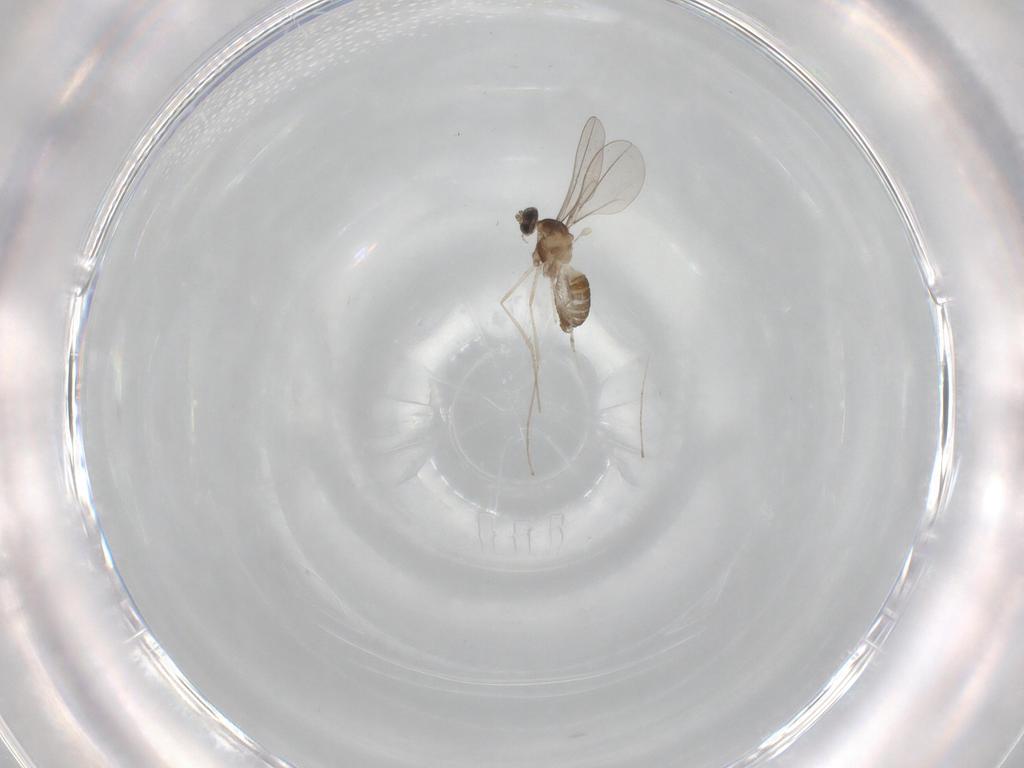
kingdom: Animalia
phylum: Arthropoda
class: Insecta
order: Diptera
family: Cecidomyiidae
